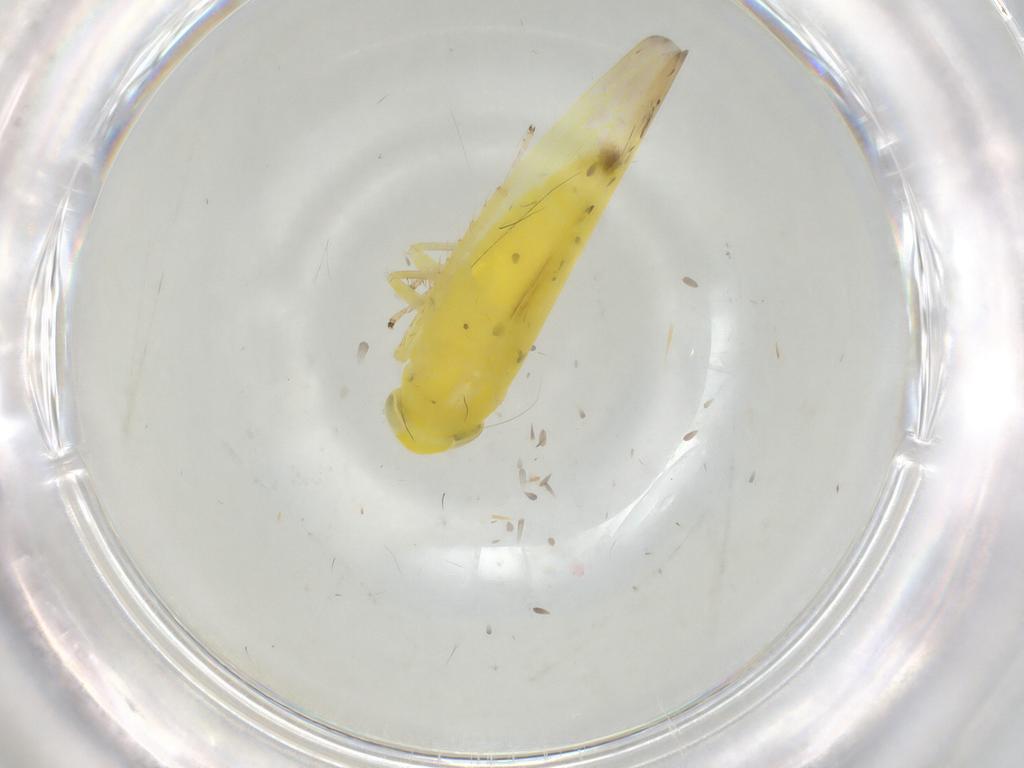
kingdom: Animalia
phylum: Arthropoda
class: Insecta
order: Hemiptera
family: Cicadellidae
